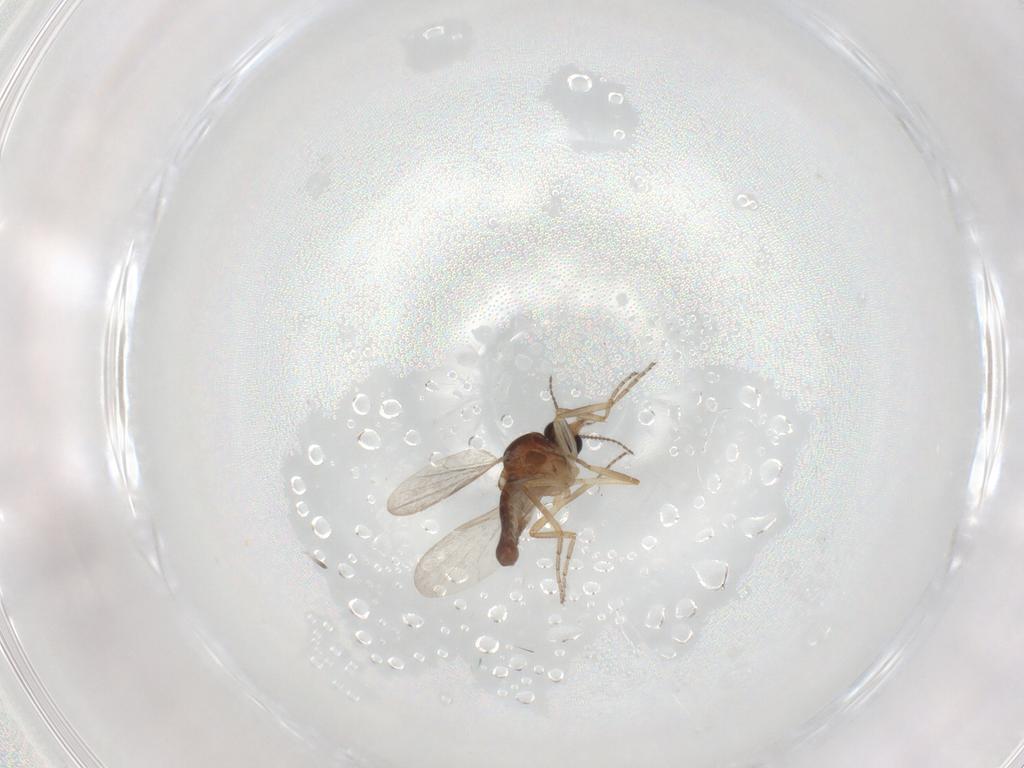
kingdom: Animalia
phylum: Arthropoda
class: Insecta
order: Diptera
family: Ceratopogonidae
